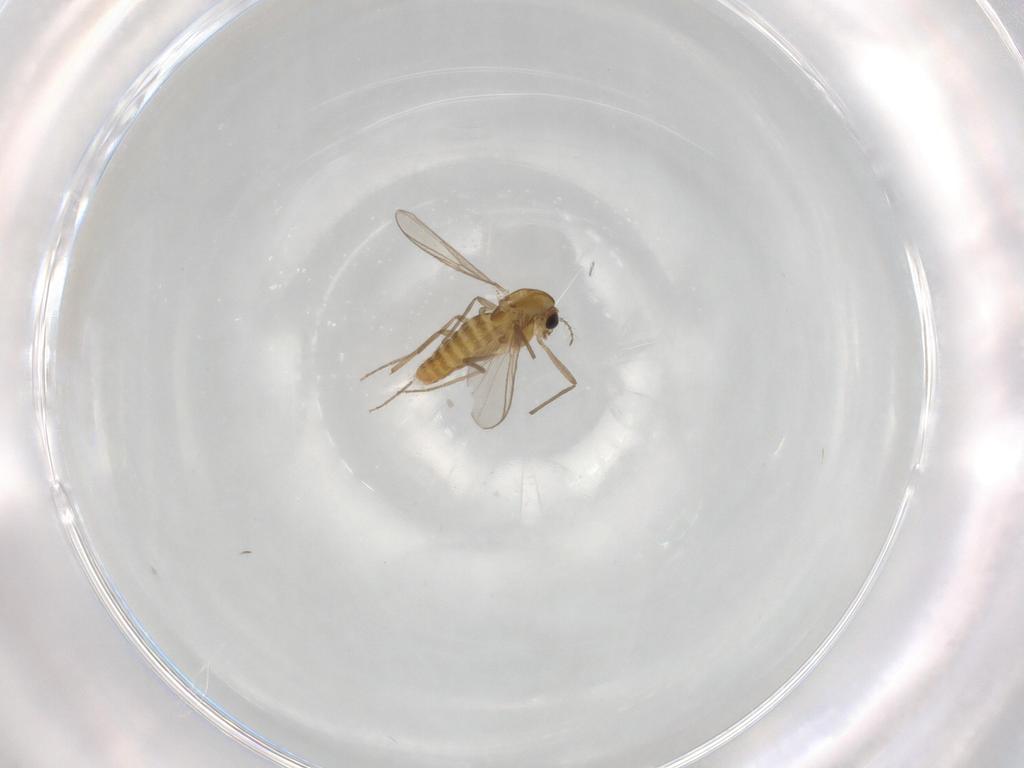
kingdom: Animalia
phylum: Arthropoda
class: Insecta
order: Diptera
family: Chironomidae
